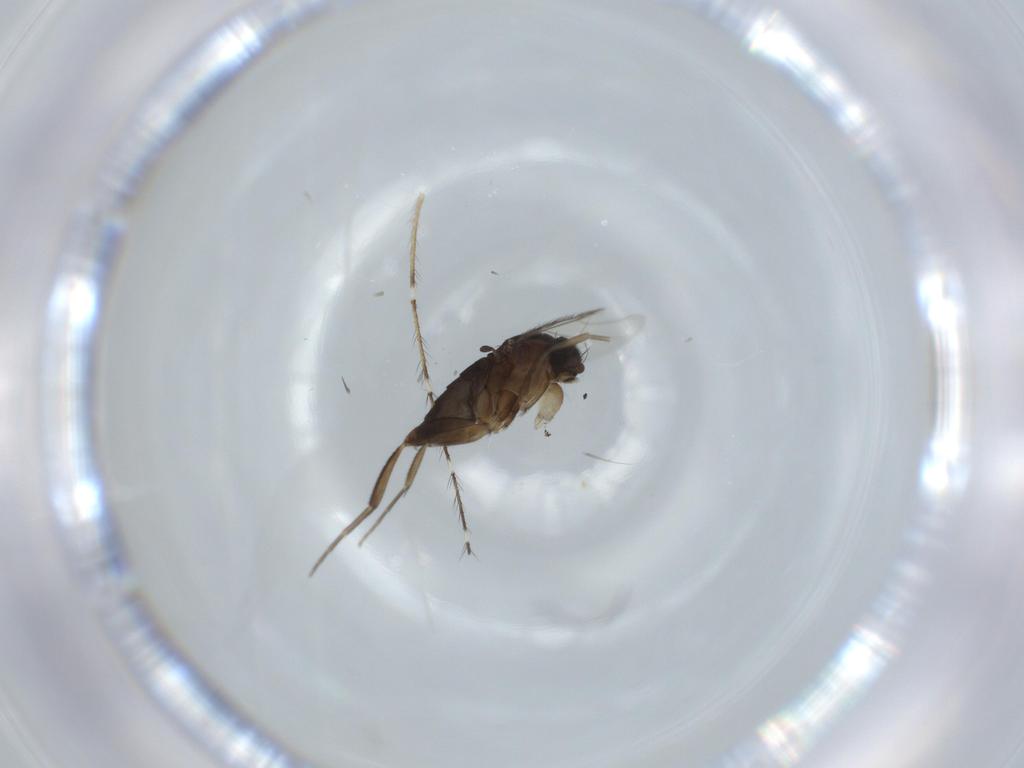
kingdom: Animalia
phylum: Arthropoda
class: Insecta
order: Diptera
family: Phoridae
